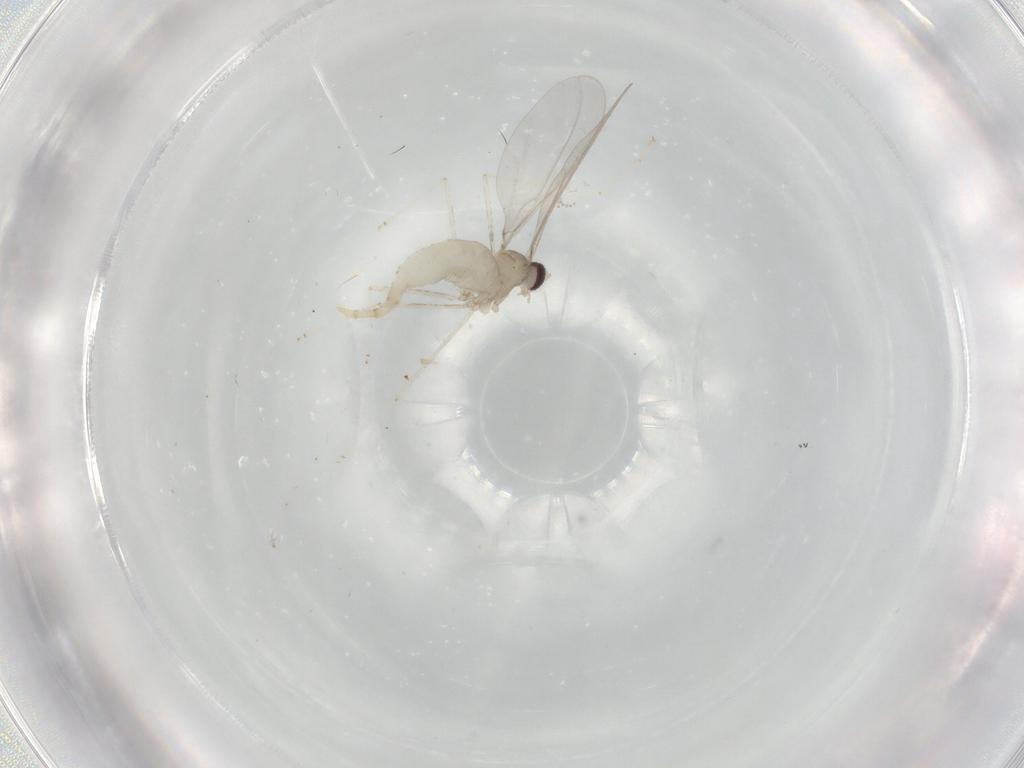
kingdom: Animalia
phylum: Arthropoda
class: Insecta
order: Diptera
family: Cecidomyiidae
